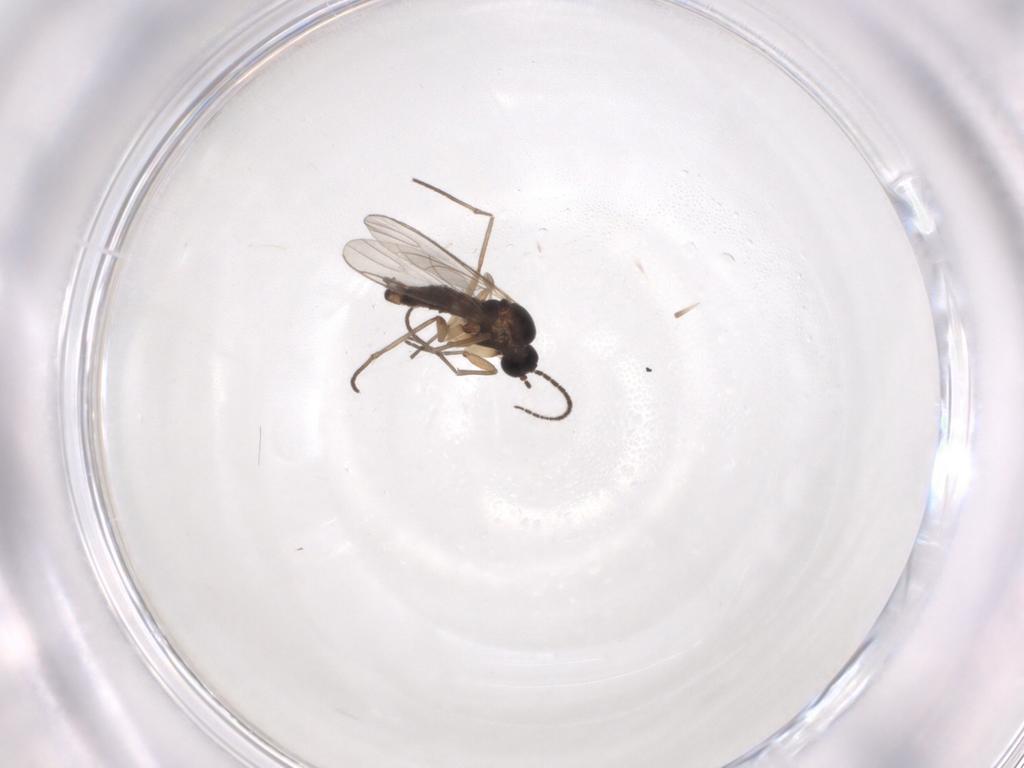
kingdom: Animalia
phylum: Arthropoda
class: Insecta
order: Diptera
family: Sciaridae
